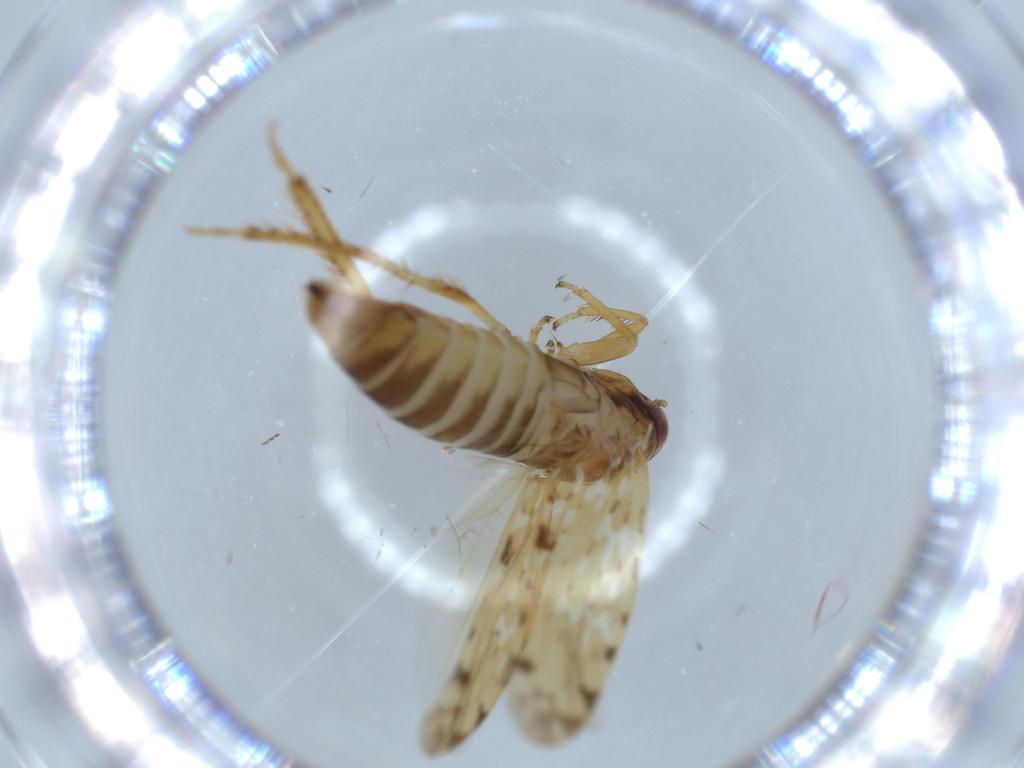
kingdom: Animalia
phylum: Arthropoda
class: Insecta
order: Hemiptera
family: Cicadellidae
